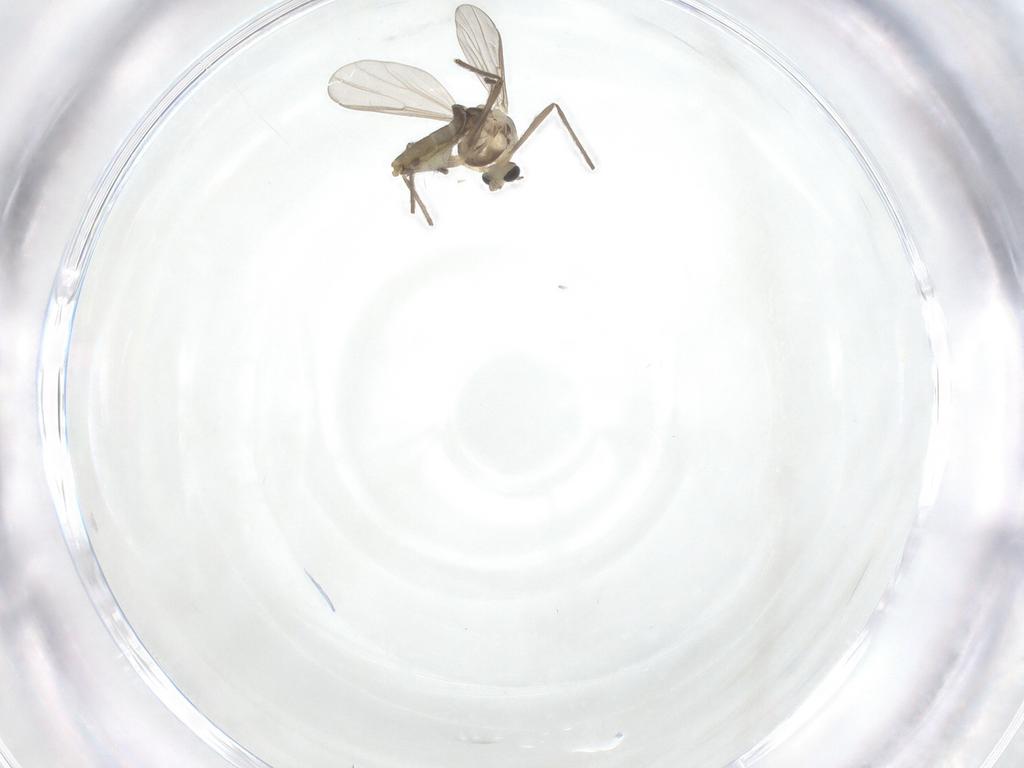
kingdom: Animalia
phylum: Arthropoda
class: Insecta
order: Diptera
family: Chironomidae
